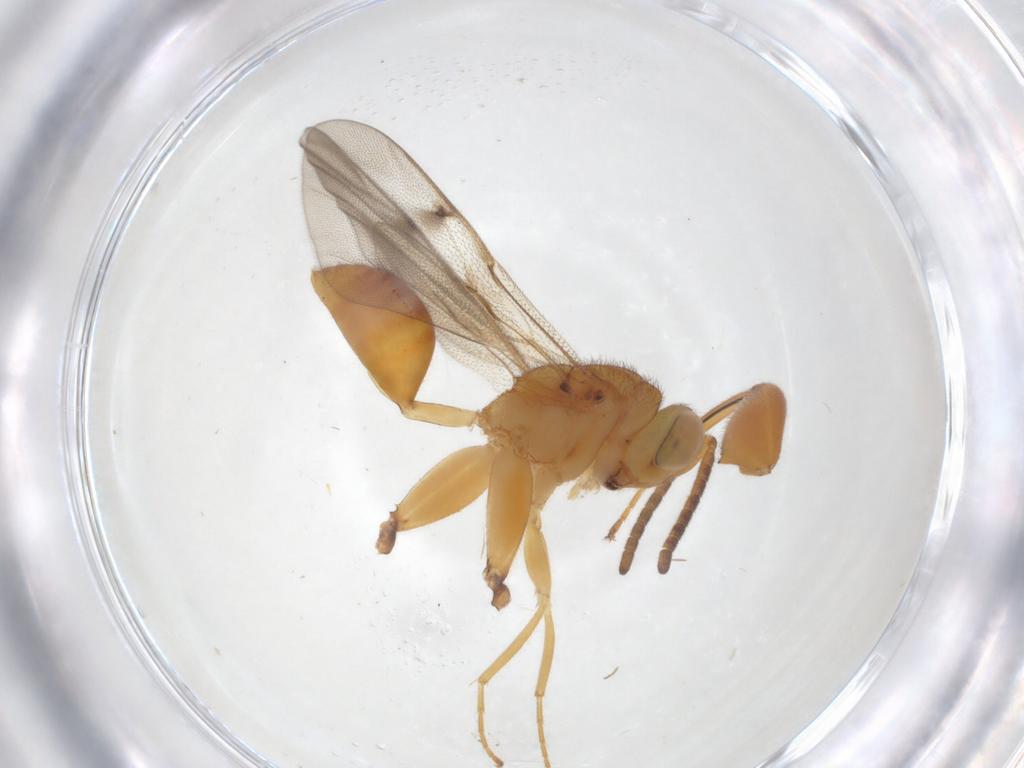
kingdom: Animalia
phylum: Arthropoda
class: Insecta
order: Hymenoptera
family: Chalcididae
